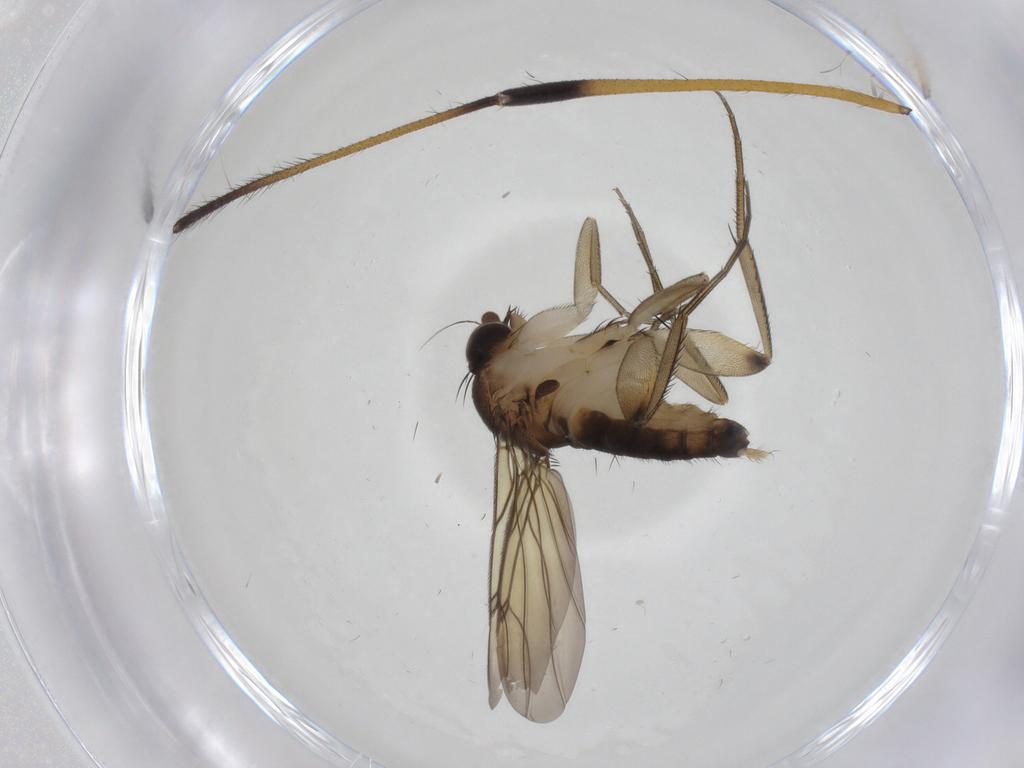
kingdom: Animalia
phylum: Arthropoda
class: Insecta
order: Diptera
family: Phoridae
